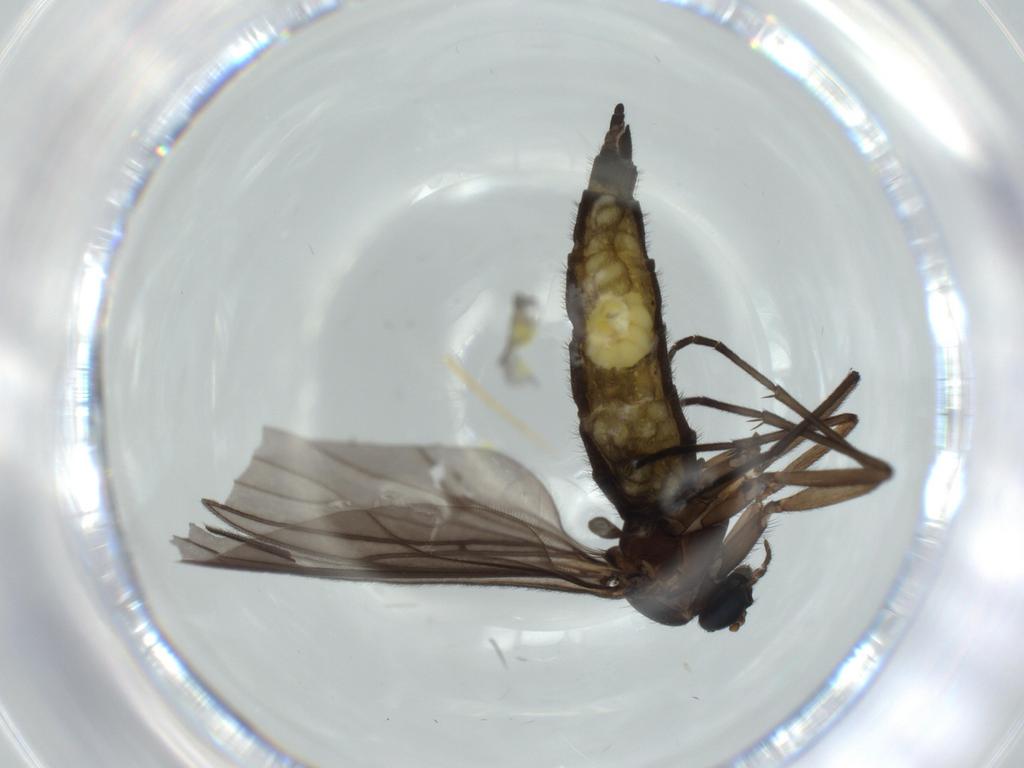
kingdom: Animalia
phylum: Arthropoda
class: Insecta
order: Diptera
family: Sciaridae
